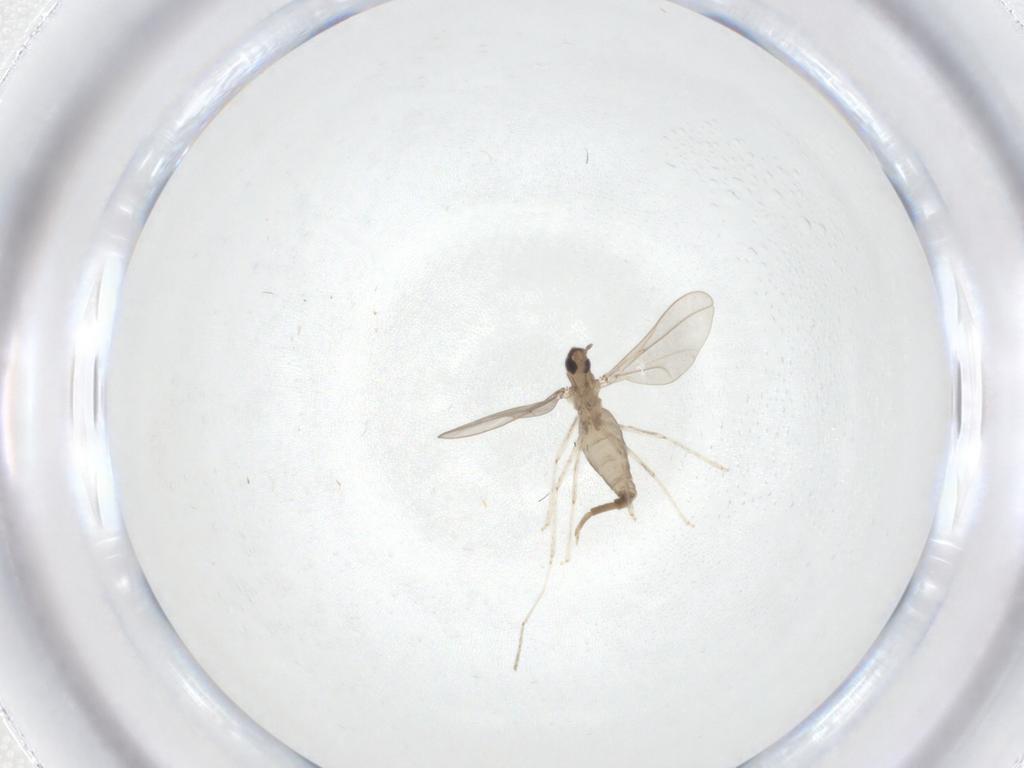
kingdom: Animalia
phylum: Arthropoda
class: Insecta
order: Diptera
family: Cecidomyiidae
